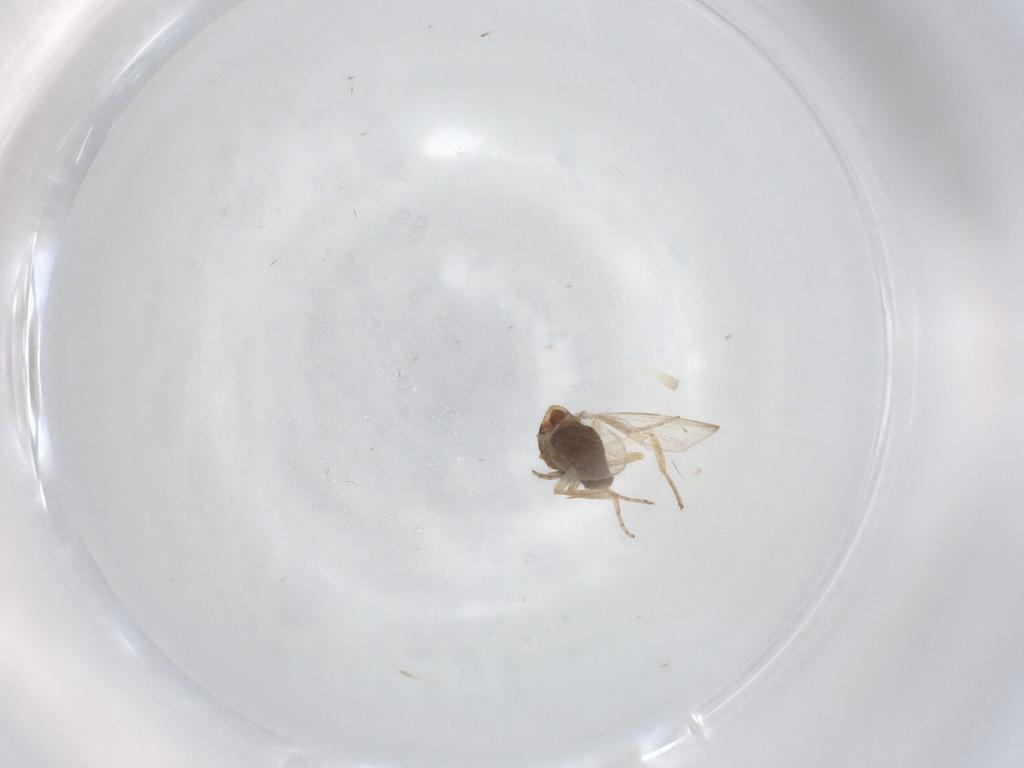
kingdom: Animalia
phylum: Arthropoda
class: Insecta
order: Diptera
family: Ceratopogonidae
